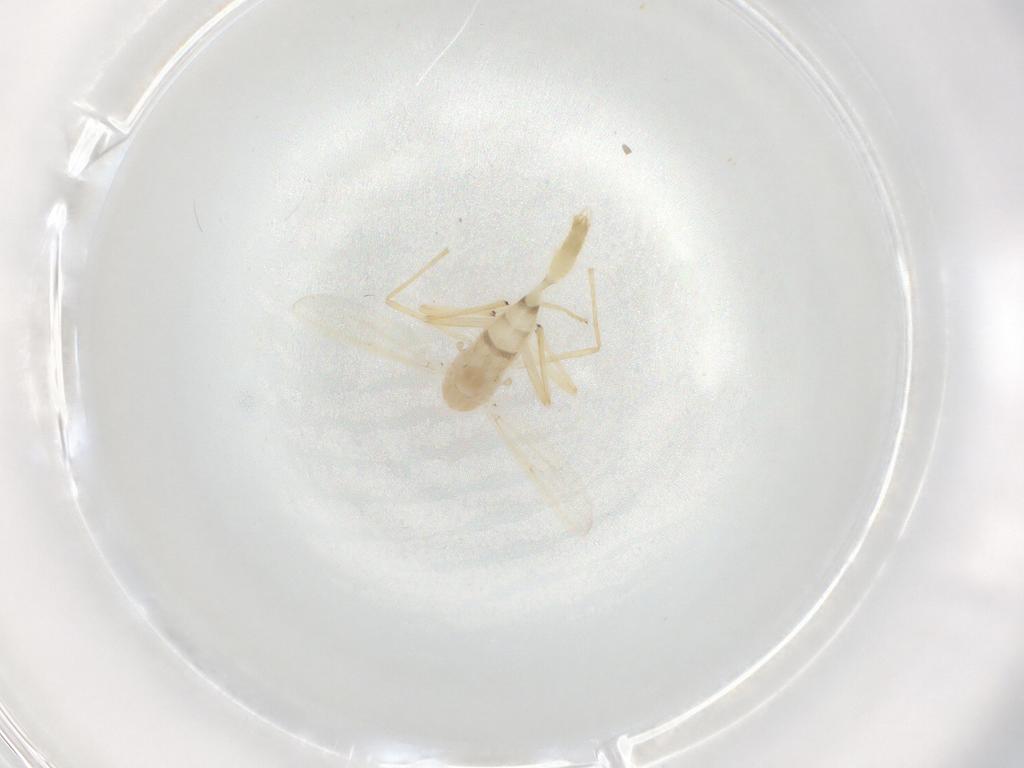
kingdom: Animalia
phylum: Arthropoda
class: Insecta
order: Diptera
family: Chironomidae
